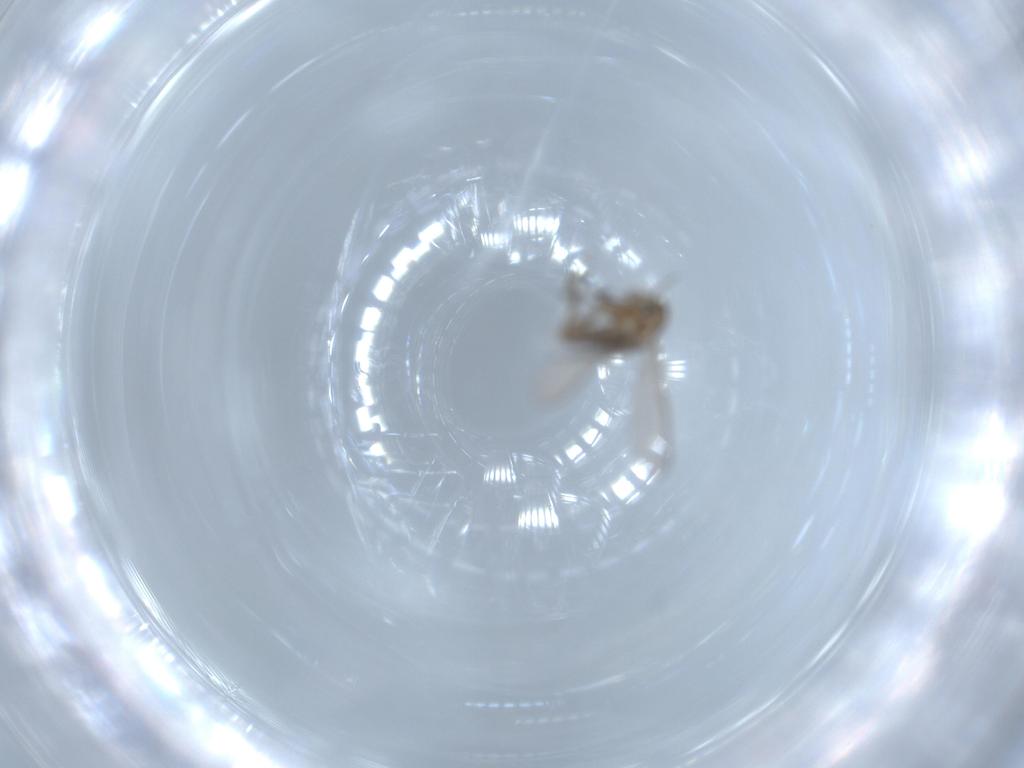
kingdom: Animalia
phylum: Arthropoda
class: Insecta
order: Diptera
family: Chironomidae
